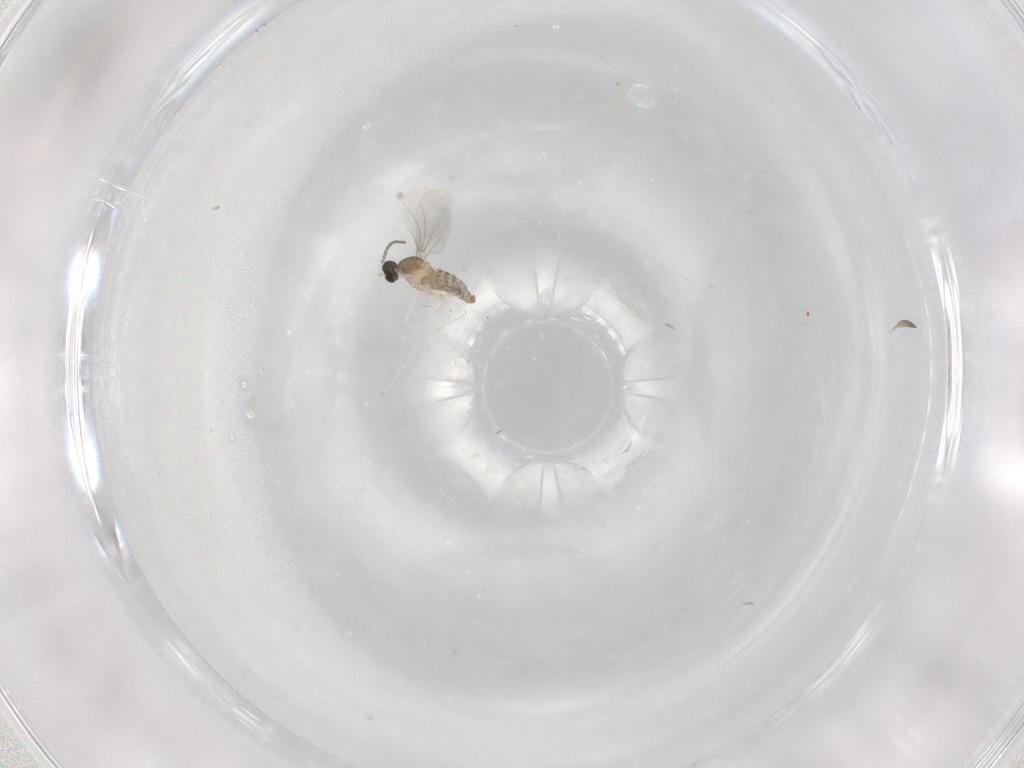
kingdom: Animalia
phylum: Arthropoda
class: Insecta
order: Diptera
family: Cecidomyiidae
